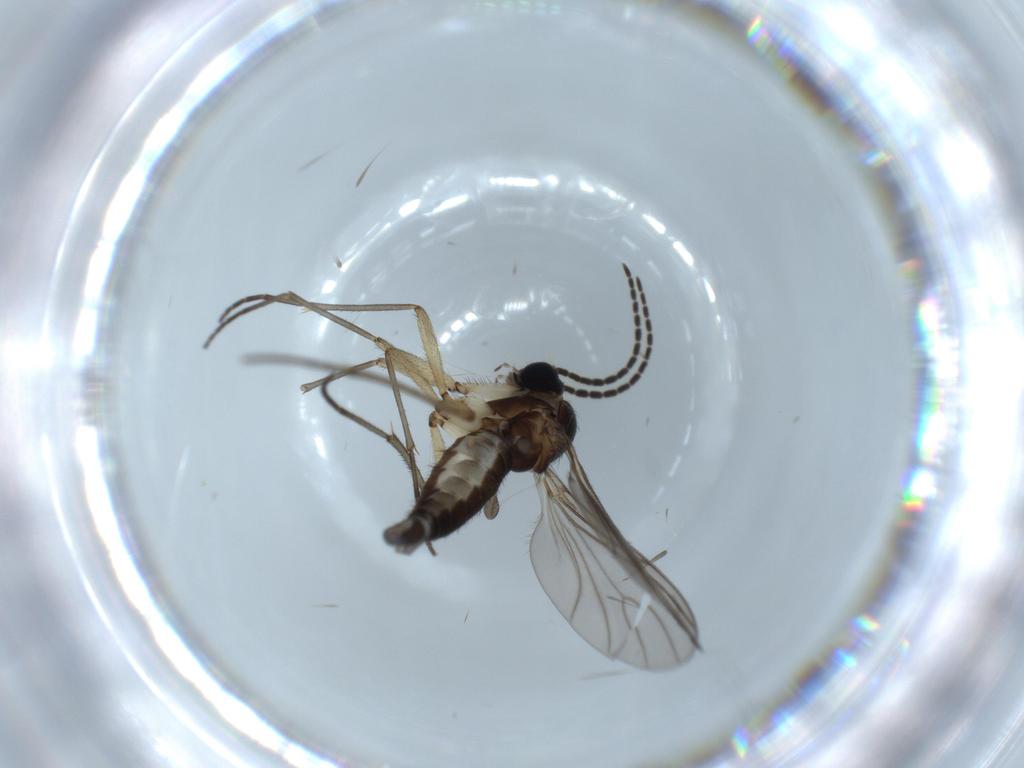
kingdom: Animalia
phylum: Arthropoda
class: Insecta
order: Diptera
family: Sciaridae
